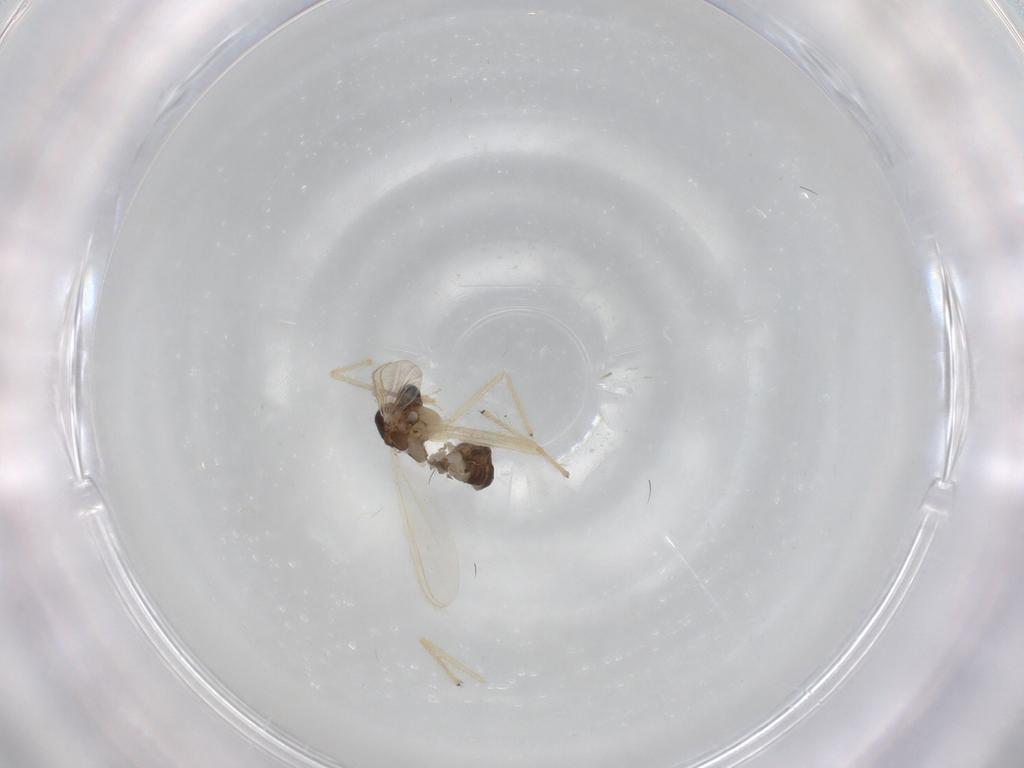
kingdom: Animalia
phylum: Arthropoda
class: Insecta
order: Diptera
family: Chironomidae
